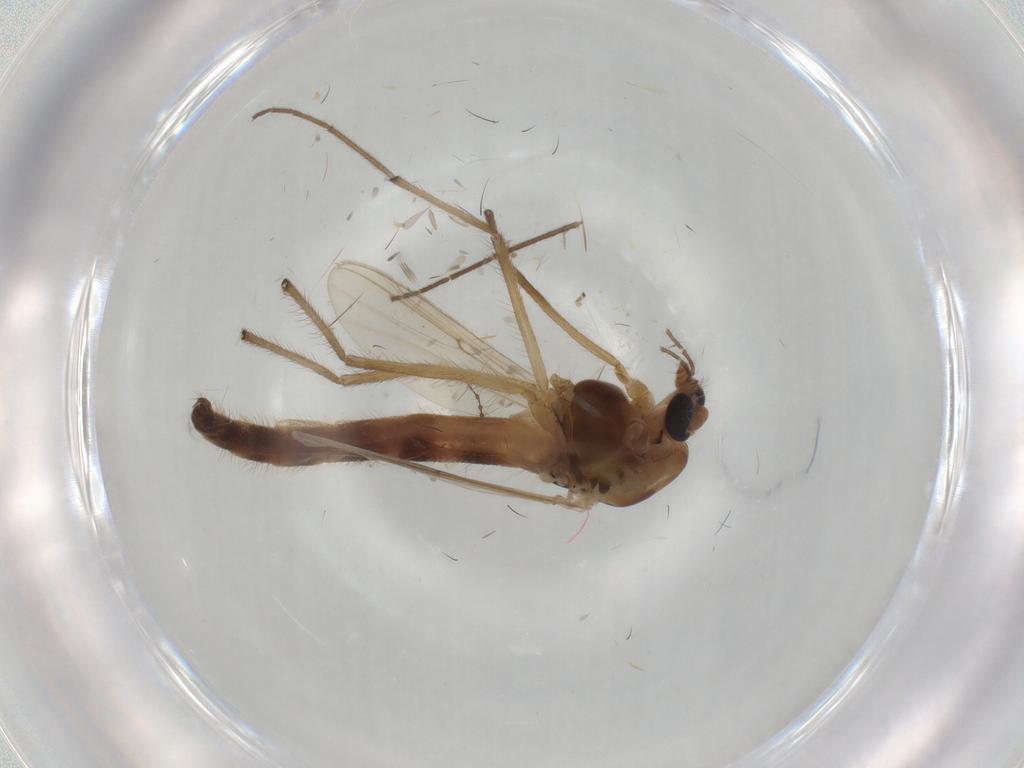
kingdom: Animalia
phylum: Arthropoda
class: Insecta
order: Diptera
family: Chironomidae
